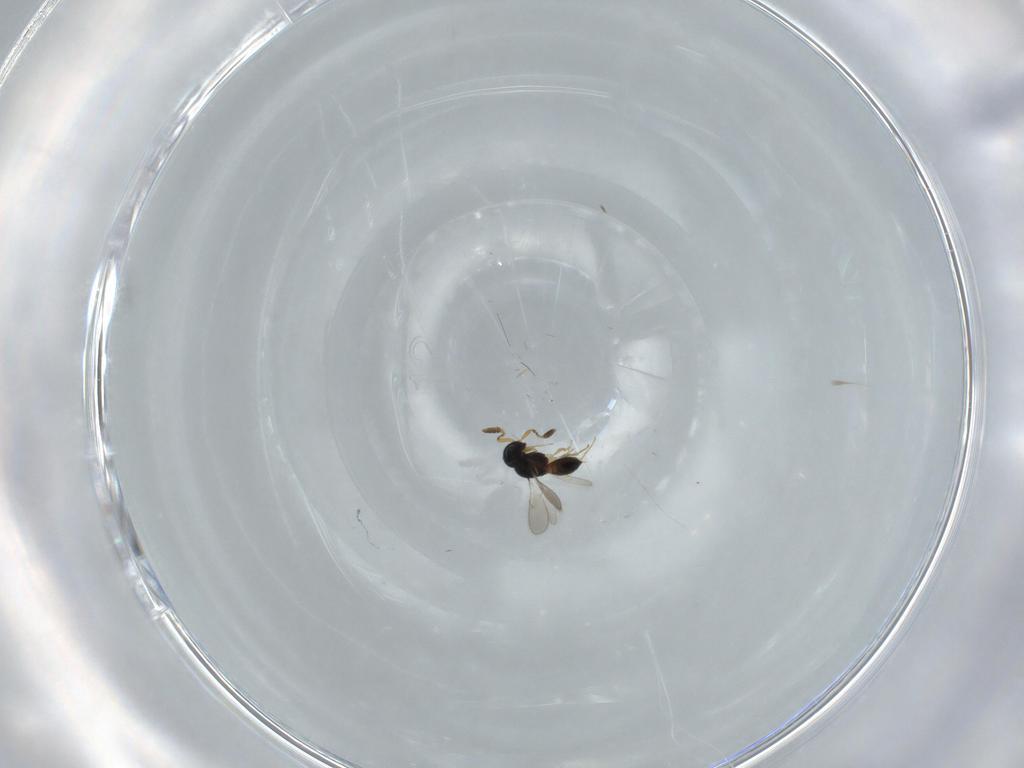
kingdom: Animalia
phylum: Arthropoda
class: Insecta
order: Hymenoptera
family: Scelionidae
